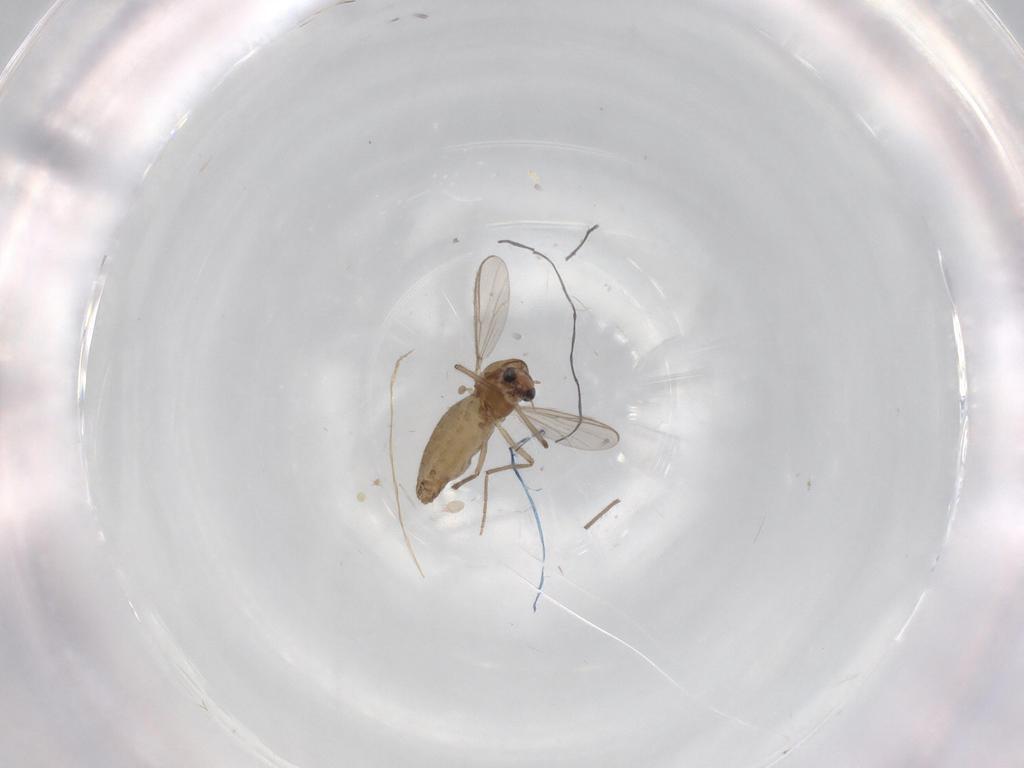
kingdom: Animalia
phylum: Arthropoda
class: Insecta
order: Diptera
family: Chironomidae
